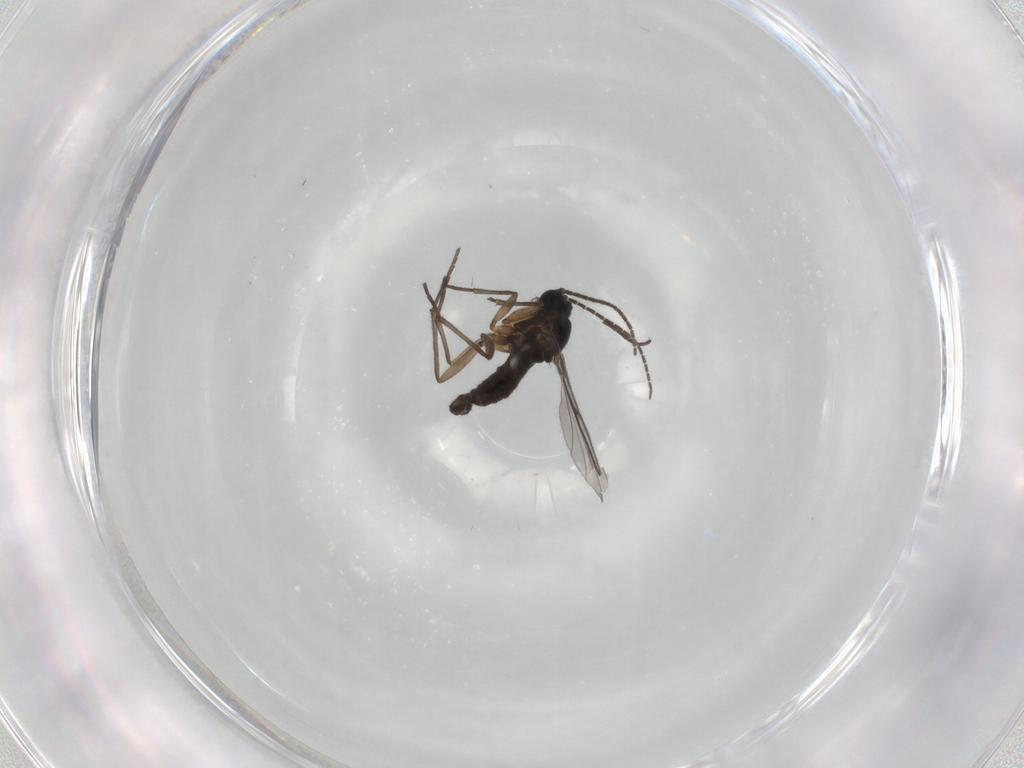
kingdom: Animalia
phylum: Arthropoda
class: Insecta
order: Diptera
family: Sciaridae
